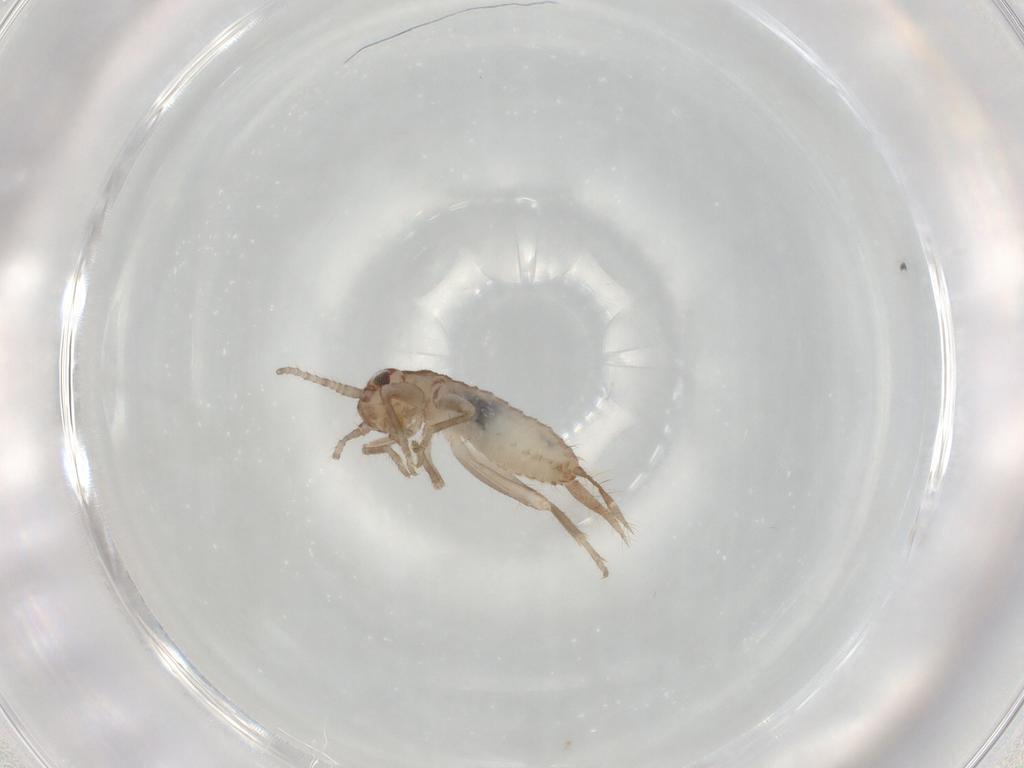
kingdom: Animalia
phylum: Arthropoda
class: Insecta
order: Orthoptera
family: Mogoplistidae
